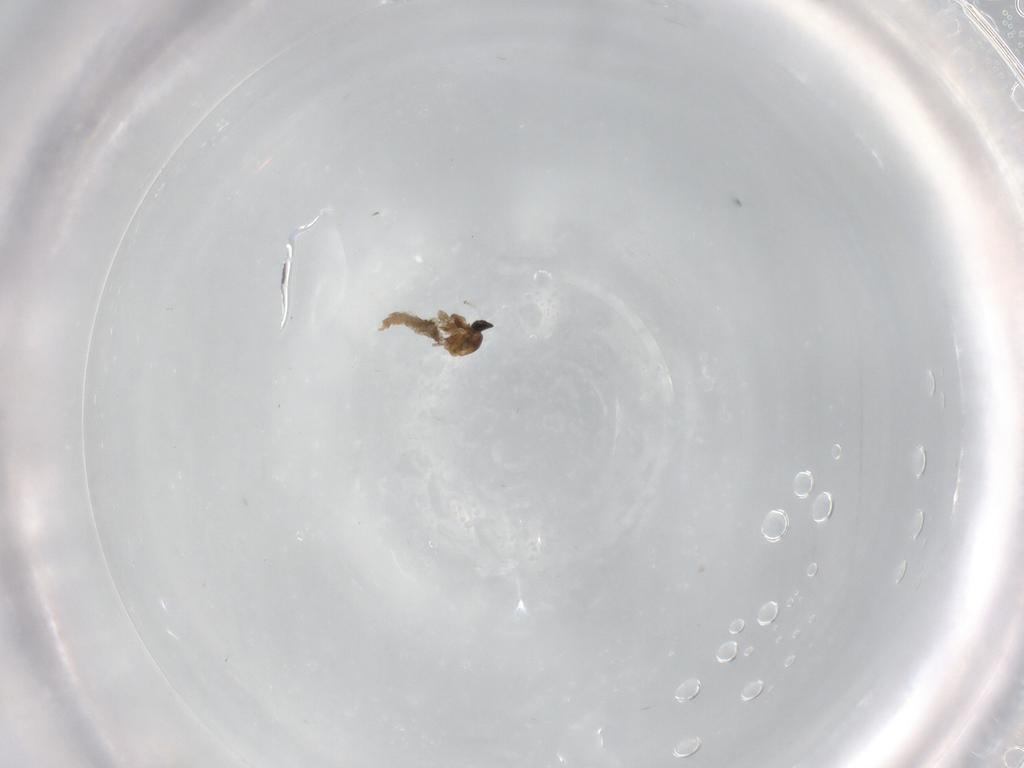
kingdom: Animalia
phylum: Arthropoda
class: Insecta
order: Diptera
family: Cecidomyiidae
